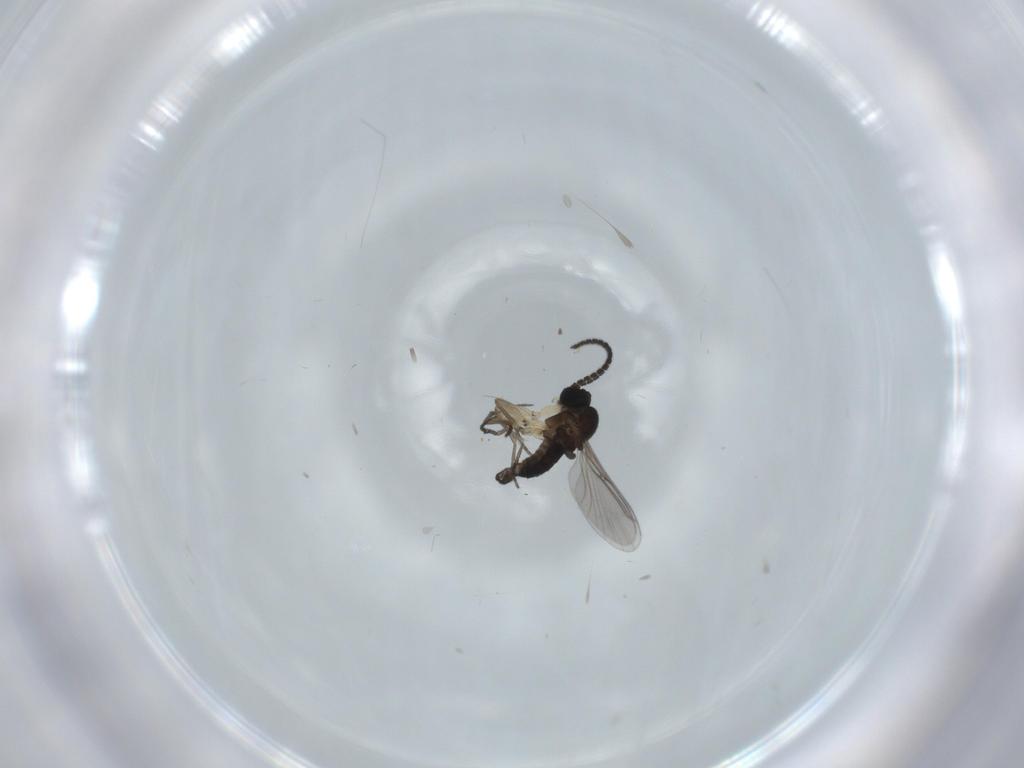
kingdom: Animalia
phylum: Arthropoda
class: Insecta
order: Diptera
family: Sciaridae
